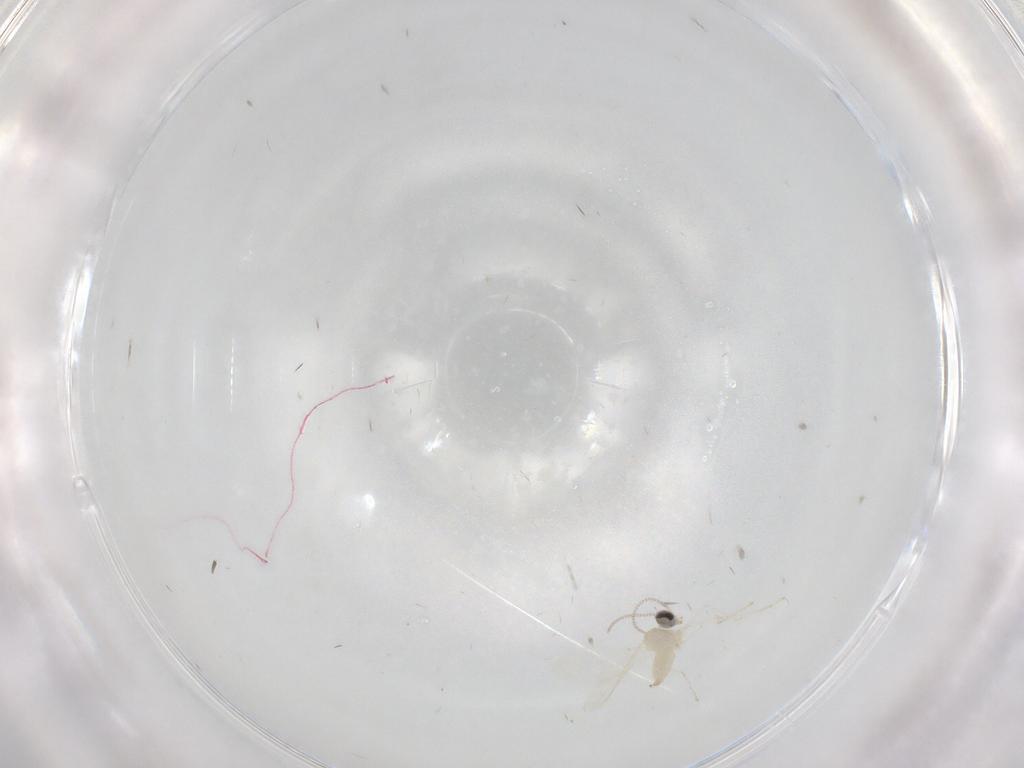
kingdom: Animalia
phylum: Arthropoda
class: Insecta
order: Diptera
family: Cecidomyiidae
